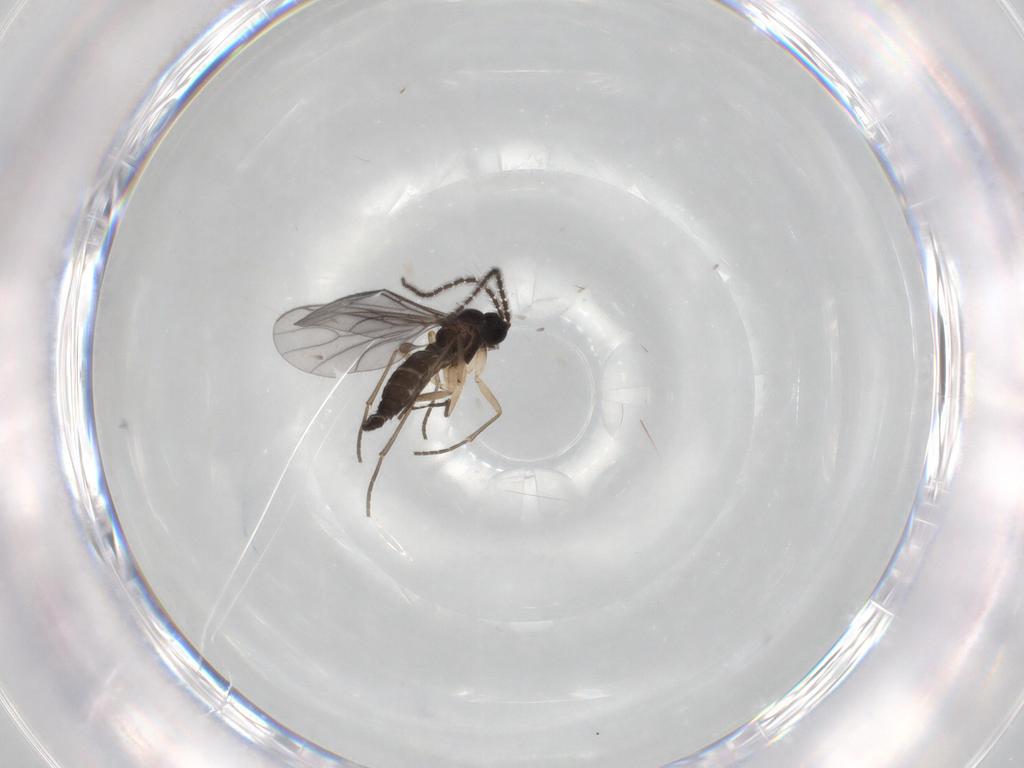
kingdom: Animalia
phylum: Arthropoda
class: Insecta
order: Diptera
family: Sciaridae
